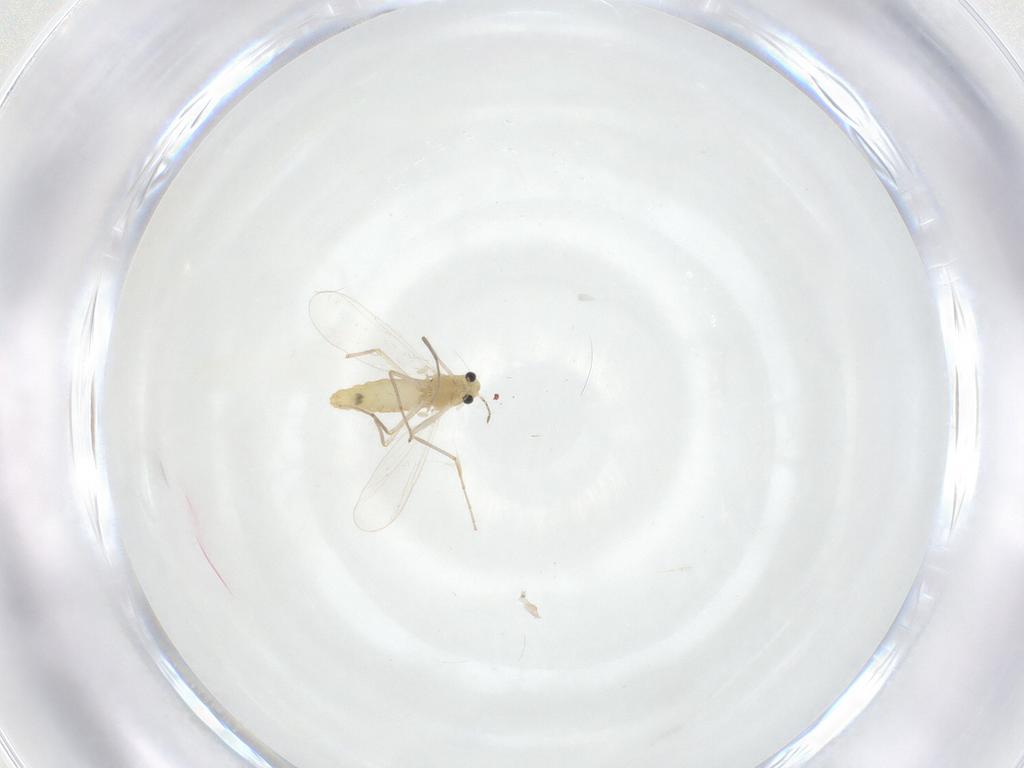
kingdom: Animalia
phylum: Arthropoda
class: Insecta
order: Diptera
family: Chironomidae
